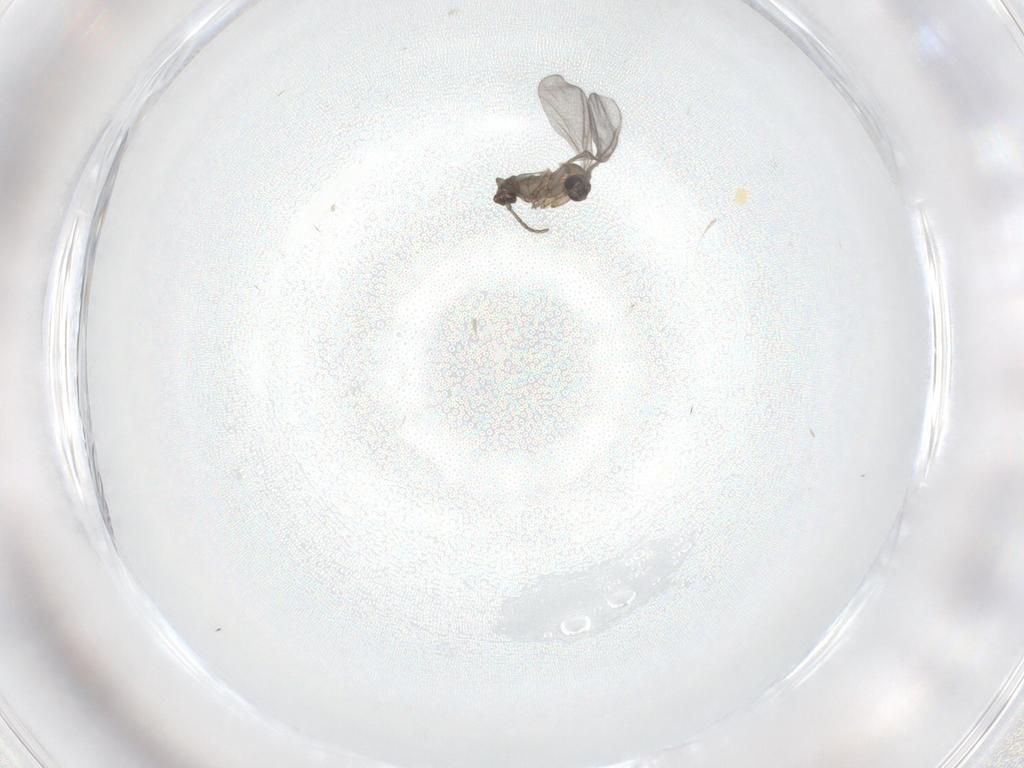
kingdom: Animalia
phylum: Arthropoda
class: Insecta
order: Diptera
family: Sciaridae
